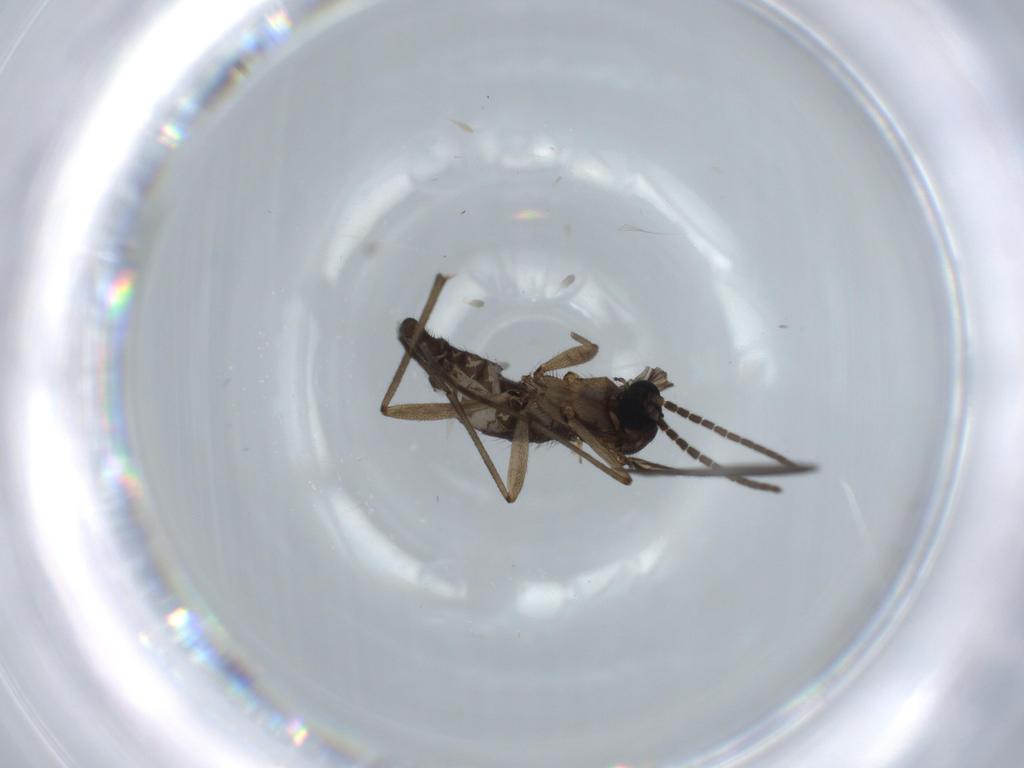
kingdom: Animalia
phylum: Arthropoda
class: Insecta
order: Diptera
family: Sciaridae
